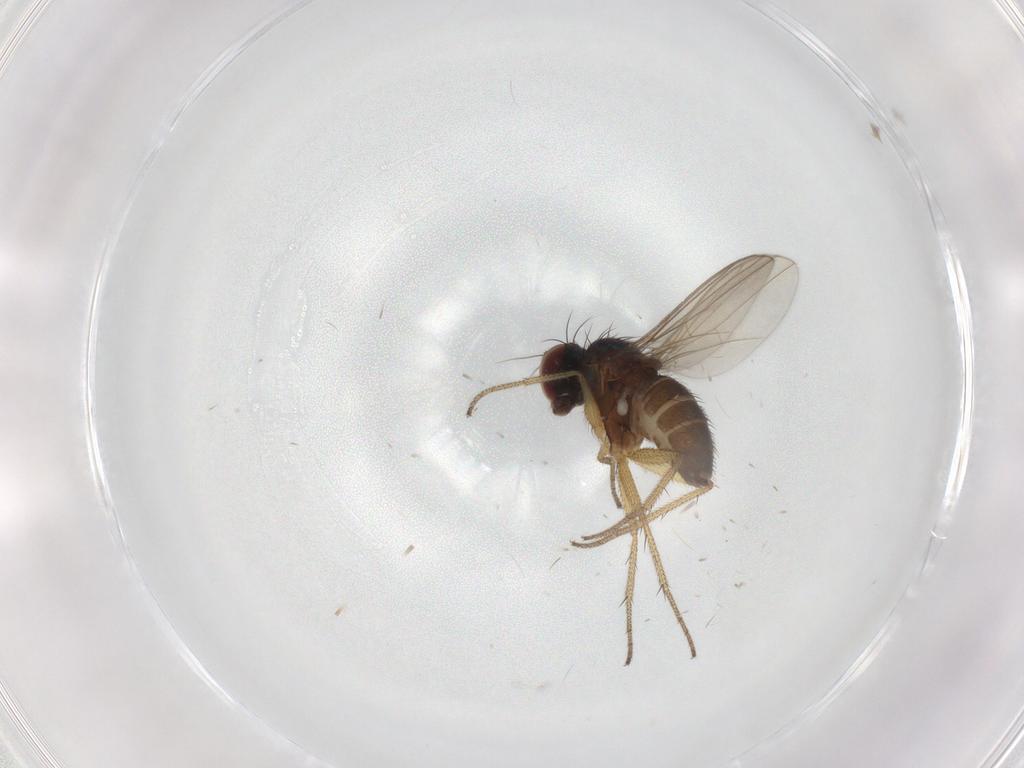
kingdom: Animalia
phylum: Arthropoda
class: Insecta
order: Diptera
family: Dolichopodidae
